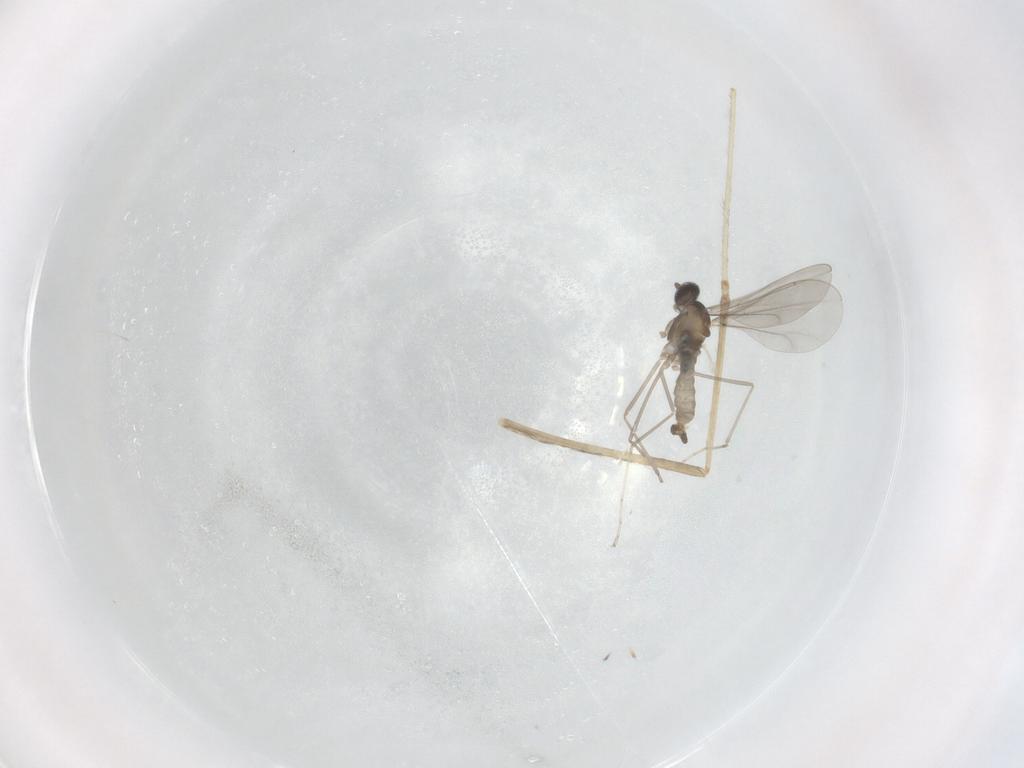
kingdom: Animalia
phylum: Arthropoda
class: Insecta
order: Diptera
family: Cecidomyiidae
